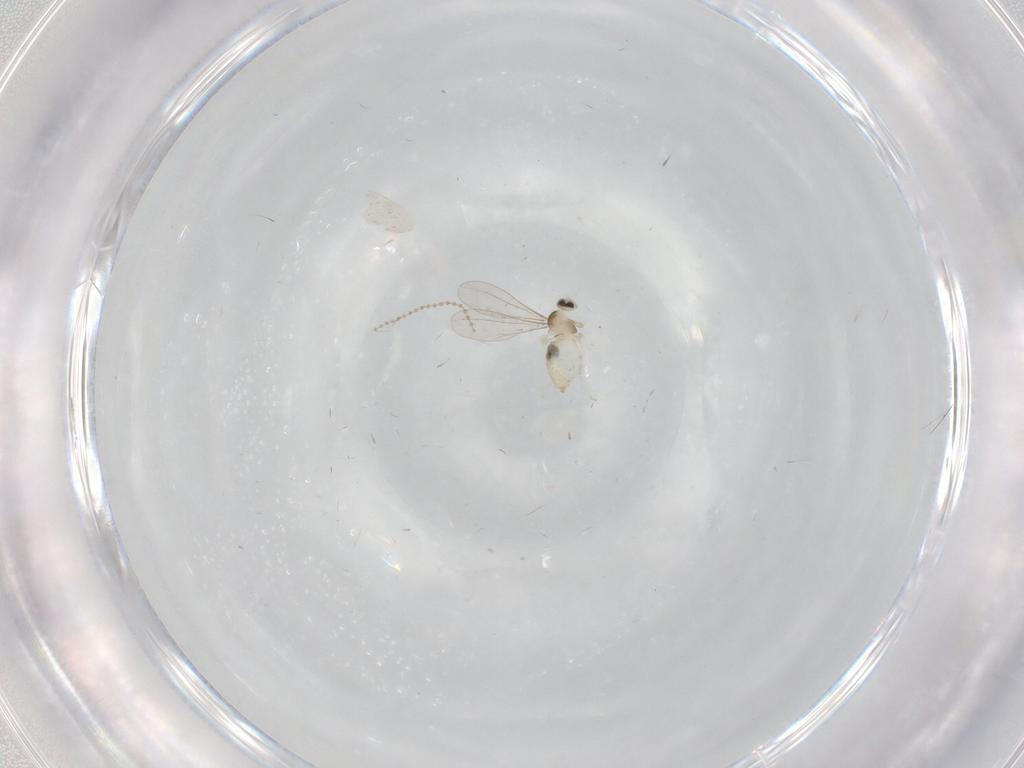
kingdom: Animalia
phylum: Arthropoda
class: Insecta
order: Diptera
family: Cecidomyiidae
